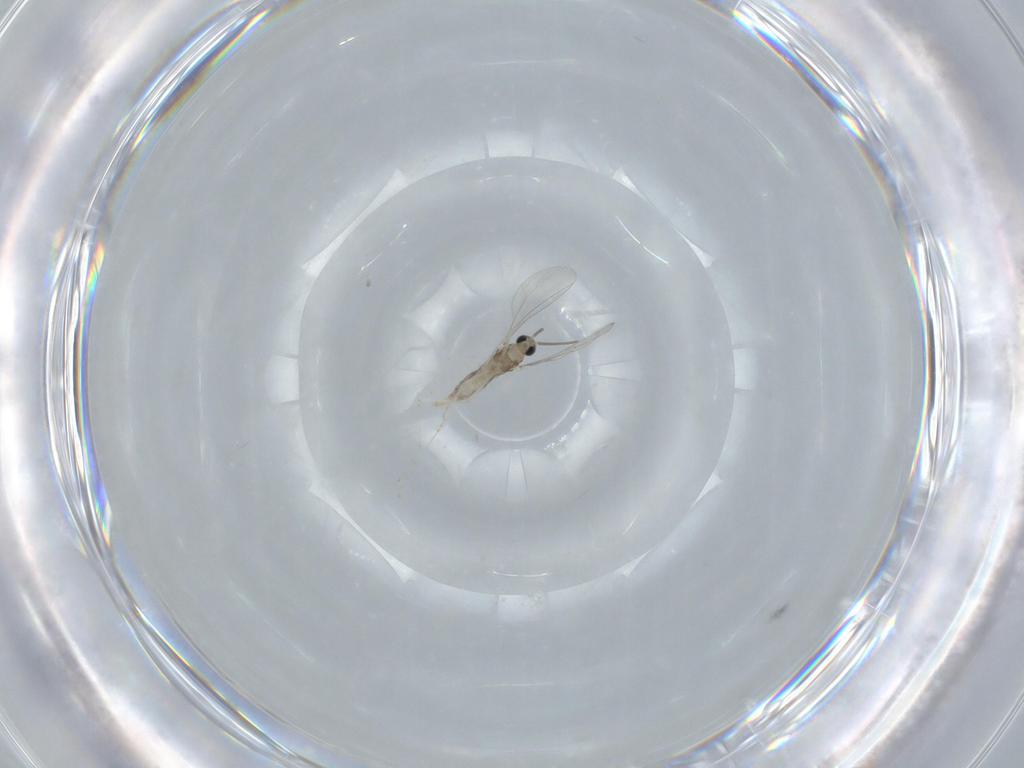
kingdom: Animalia
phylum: Arthropoda
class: Insecta
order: Diptera
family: Cecidomyiidae
